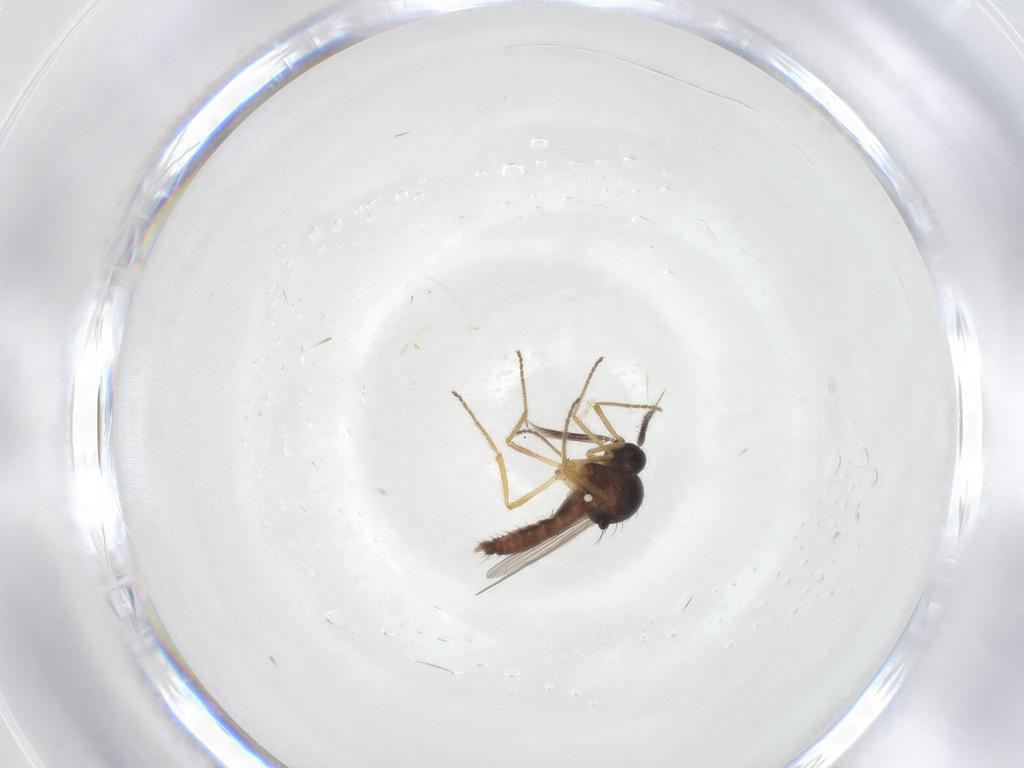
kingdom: Animalia
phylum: Arthropoda
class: Insecta
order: Diptera
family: Ceratopogonidae
